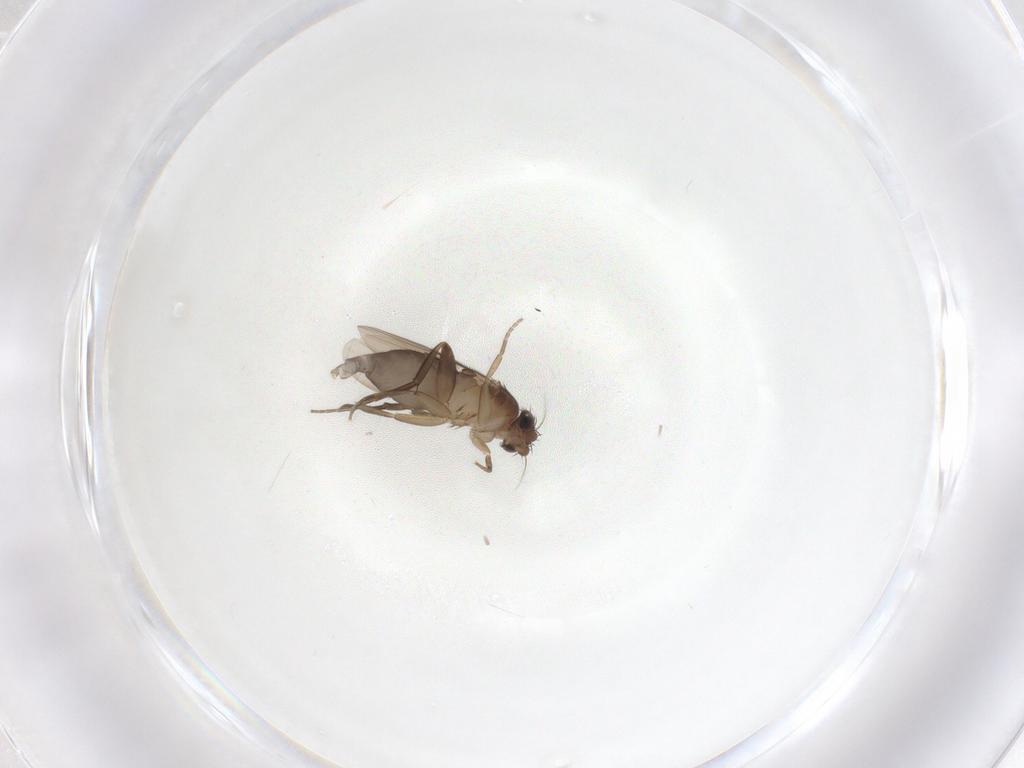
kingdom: Animalia
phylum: Arthropoda
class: Insecta
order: Diptera
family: Phoridae
